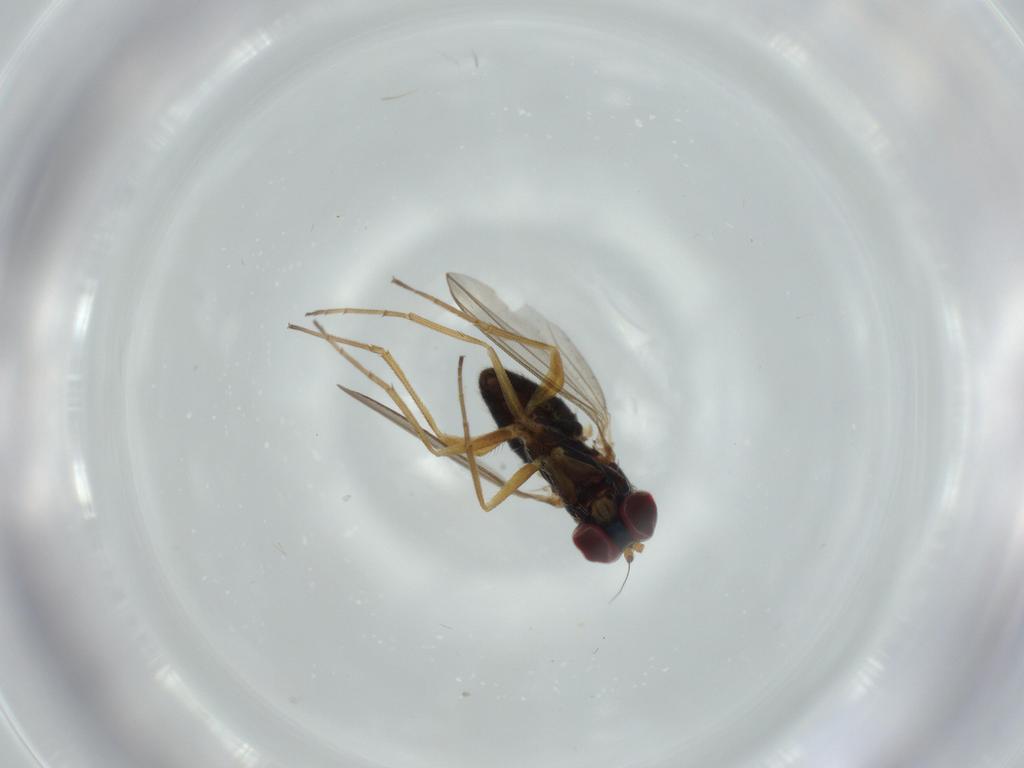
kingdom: Animalia
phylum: Arthropoda
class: Insecta
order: Diptera
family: Dolichopodidae
